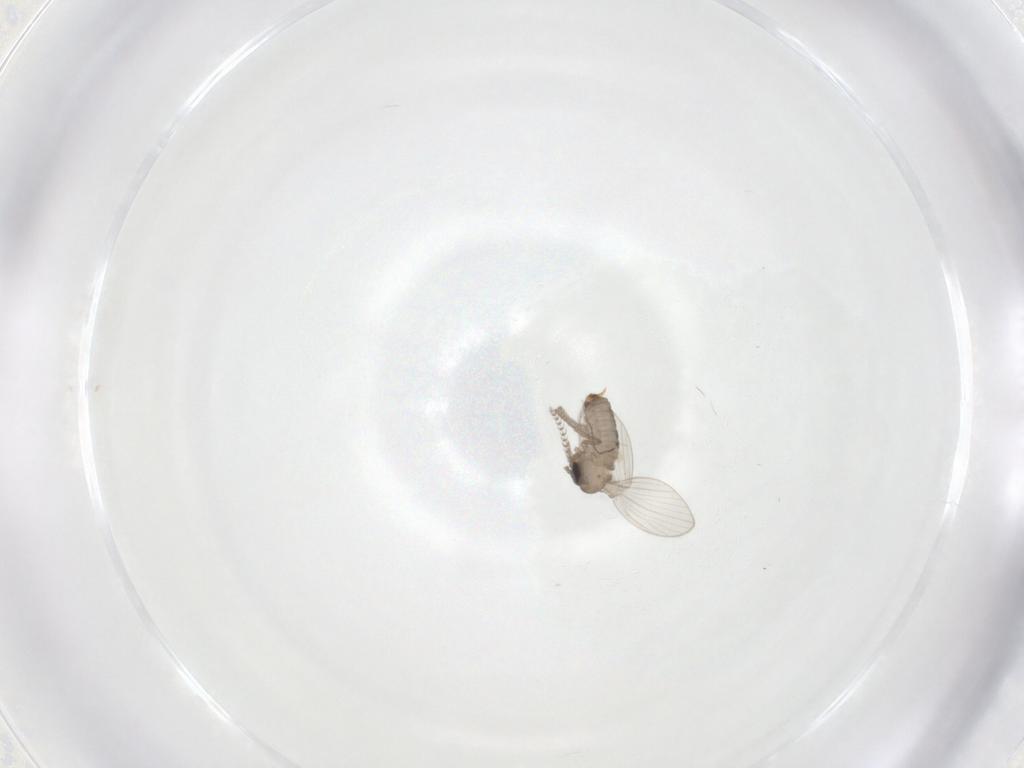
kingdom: Animalia
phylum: Arthropoda
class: Insecta
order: Diptera
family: Psychodidae
